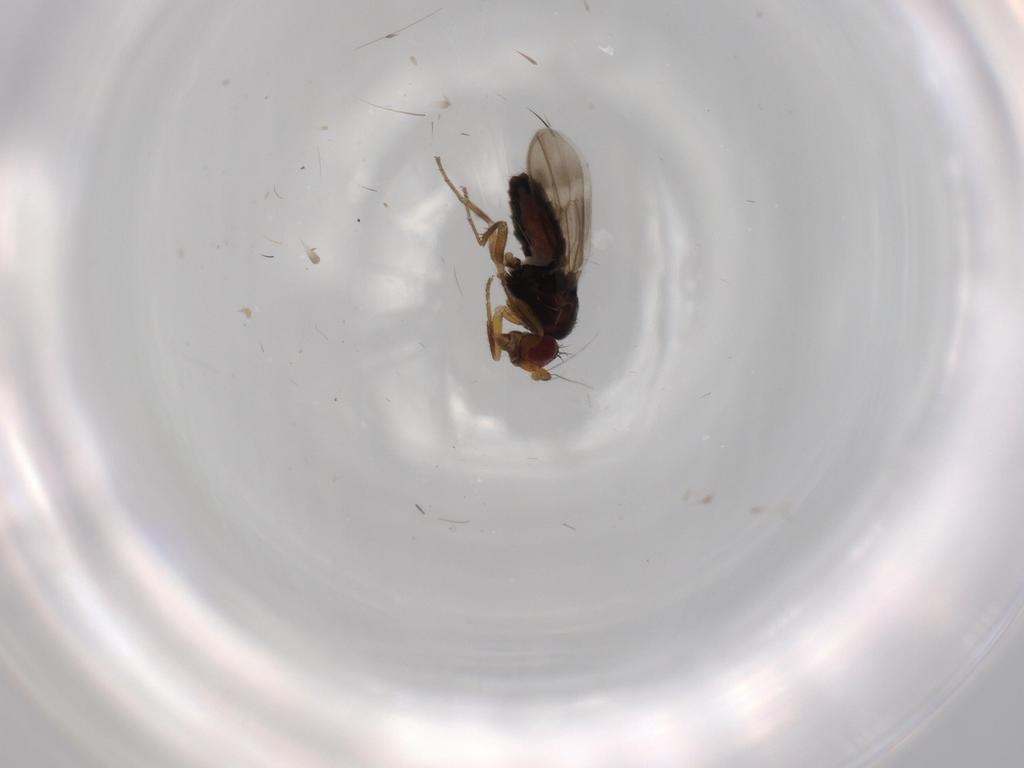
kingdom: Animalia
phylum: Arthropoda
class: Insecta
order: Diptera
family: Sphaeroceridae
